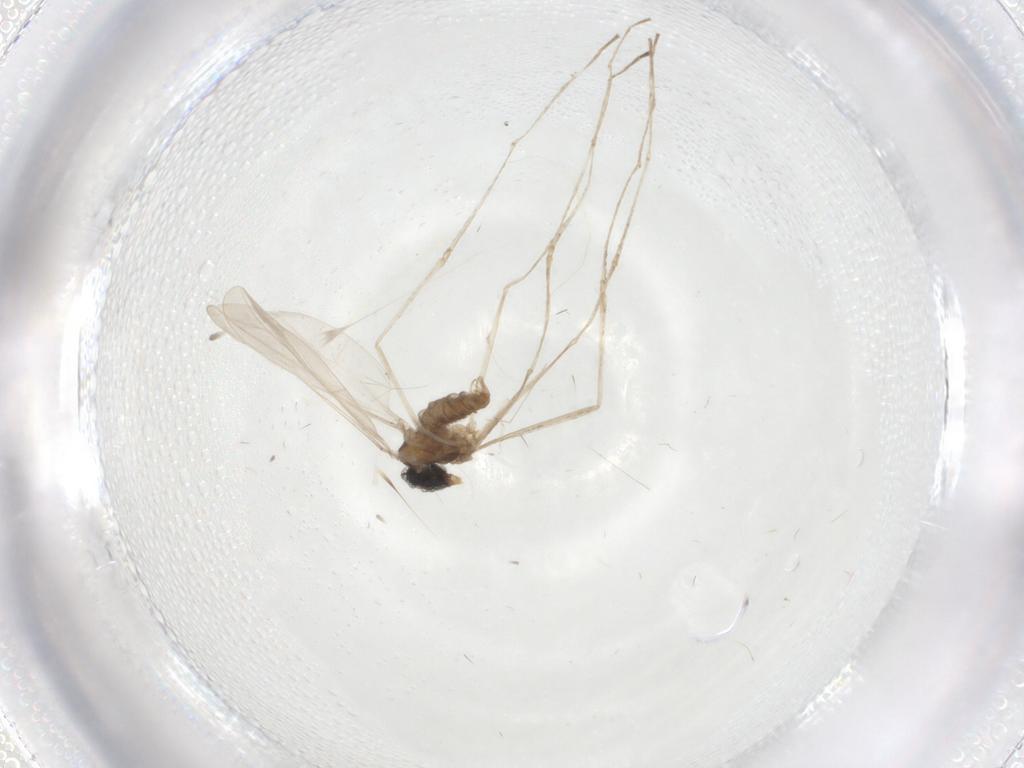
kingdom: Animalia
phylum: Arthropoda
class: Insecta
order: Diptera
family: Cecidomyiidae
